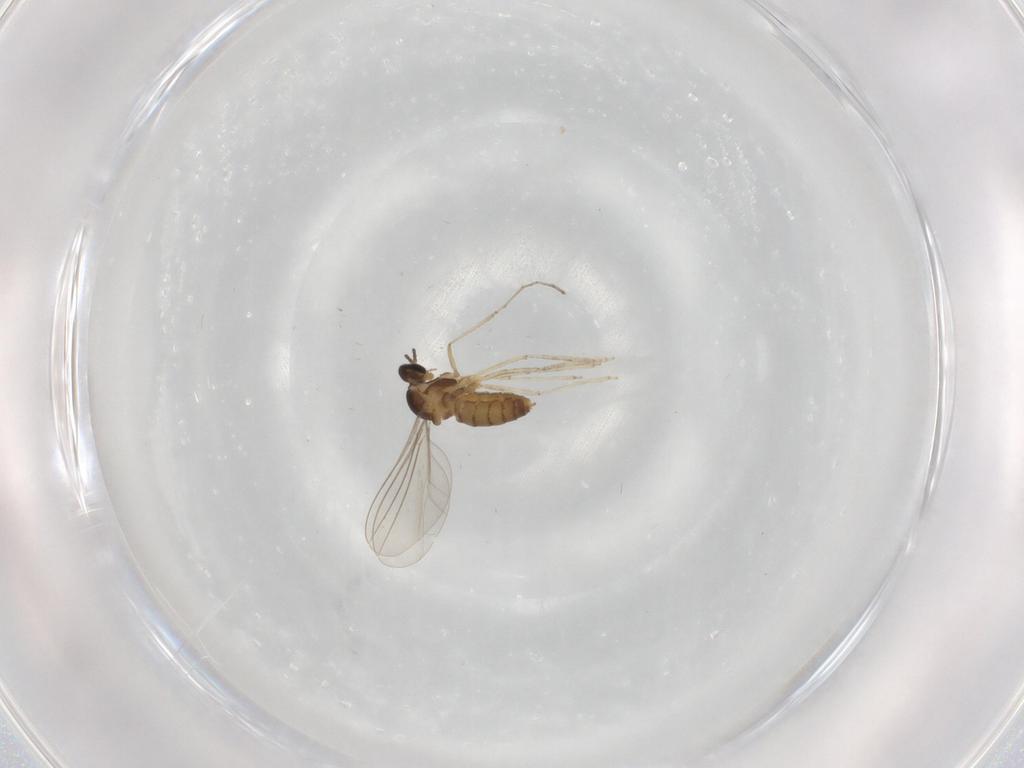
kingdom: Animalia
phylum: Arthropoda
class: Insecta
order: Diptera
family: Cecidomyiidae
